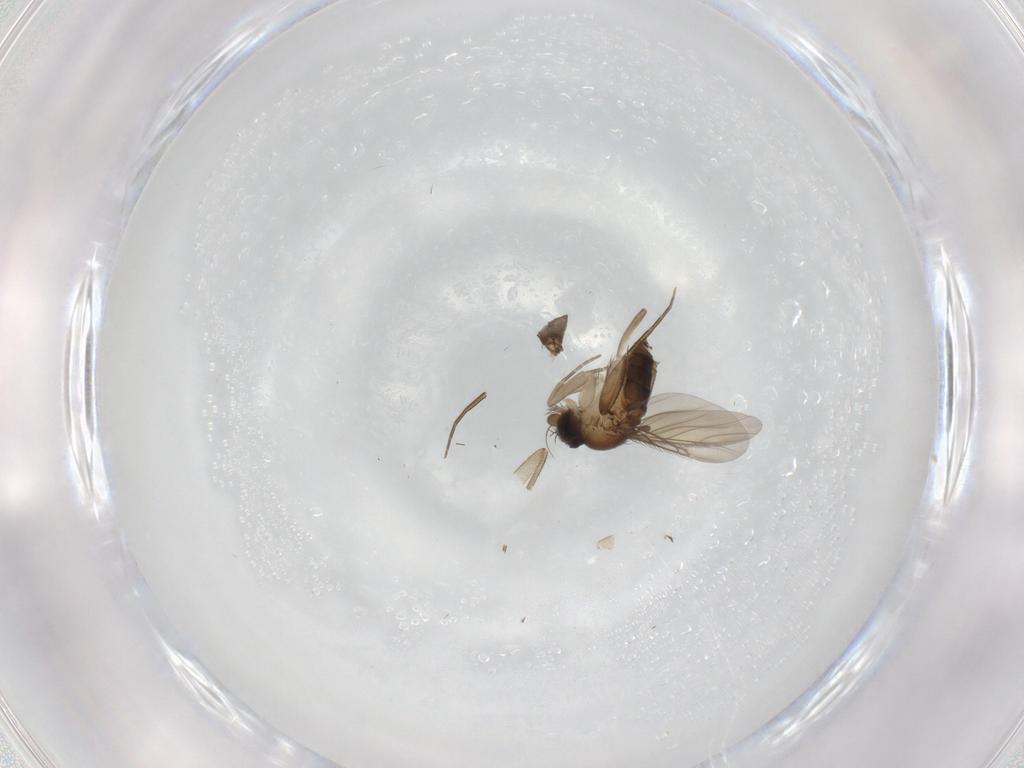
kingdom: Animalia
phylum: Arthropoda
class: Insecta
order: Diptera
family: Phoridae
